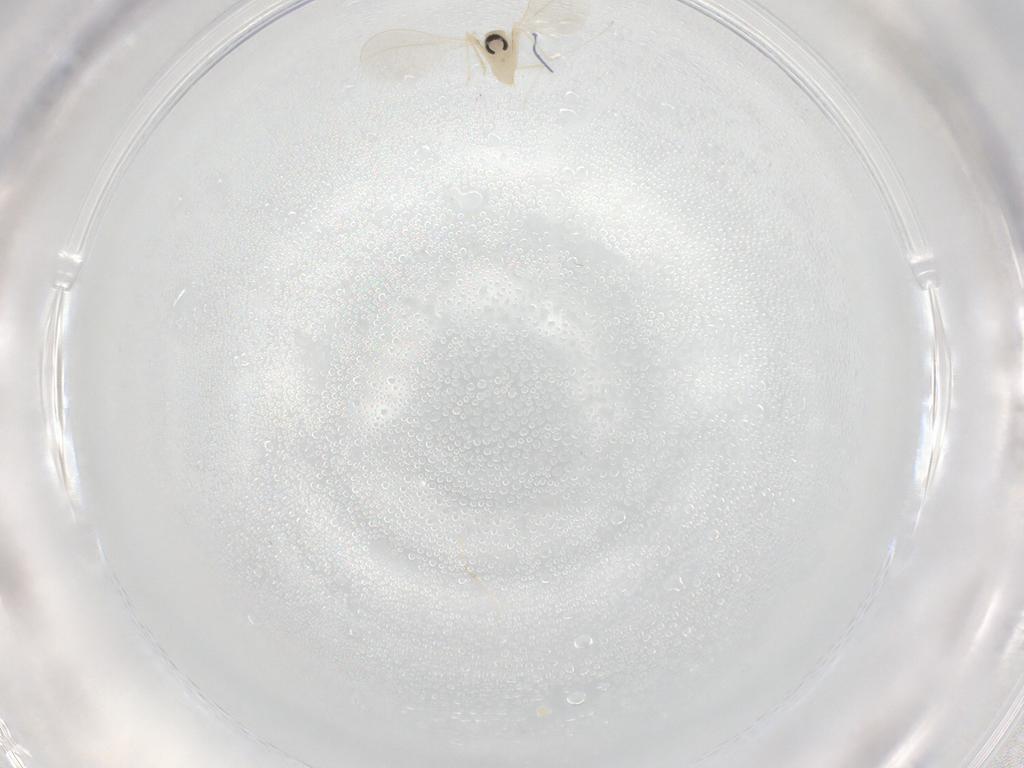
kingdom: Animalia
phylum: Arthropoda
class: Insecta
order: Diptera
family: Cecidomyiidae
